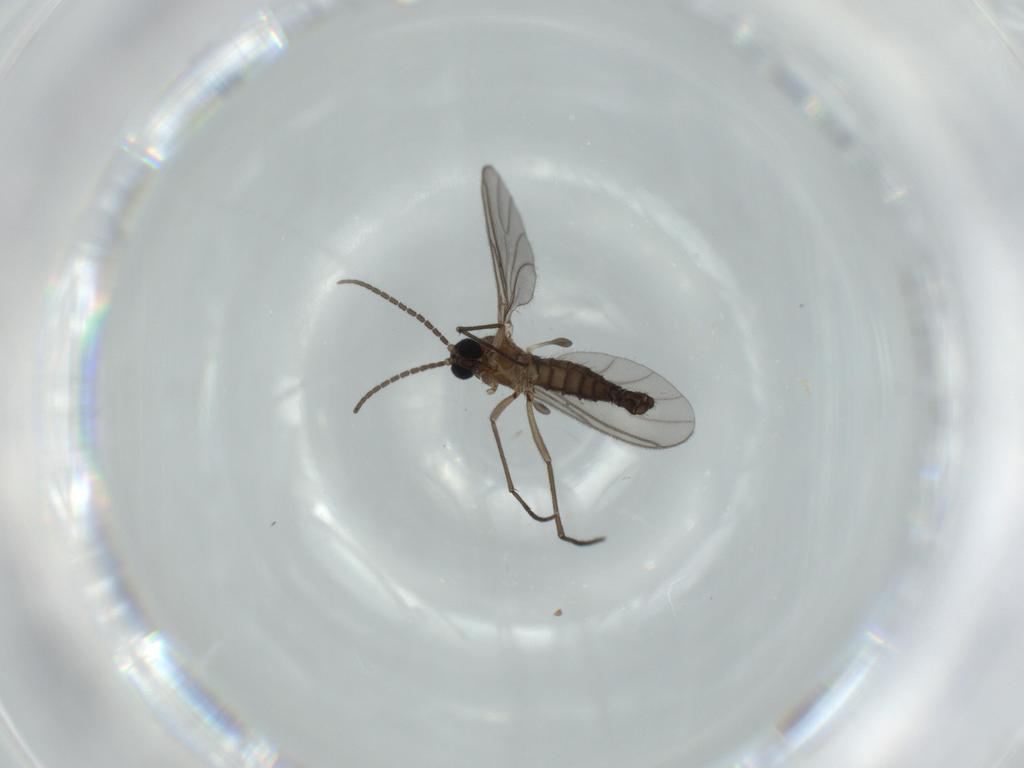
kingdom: Animalia
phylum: Arthropoda
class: Insecta
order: Diptera
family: Sciaridae
